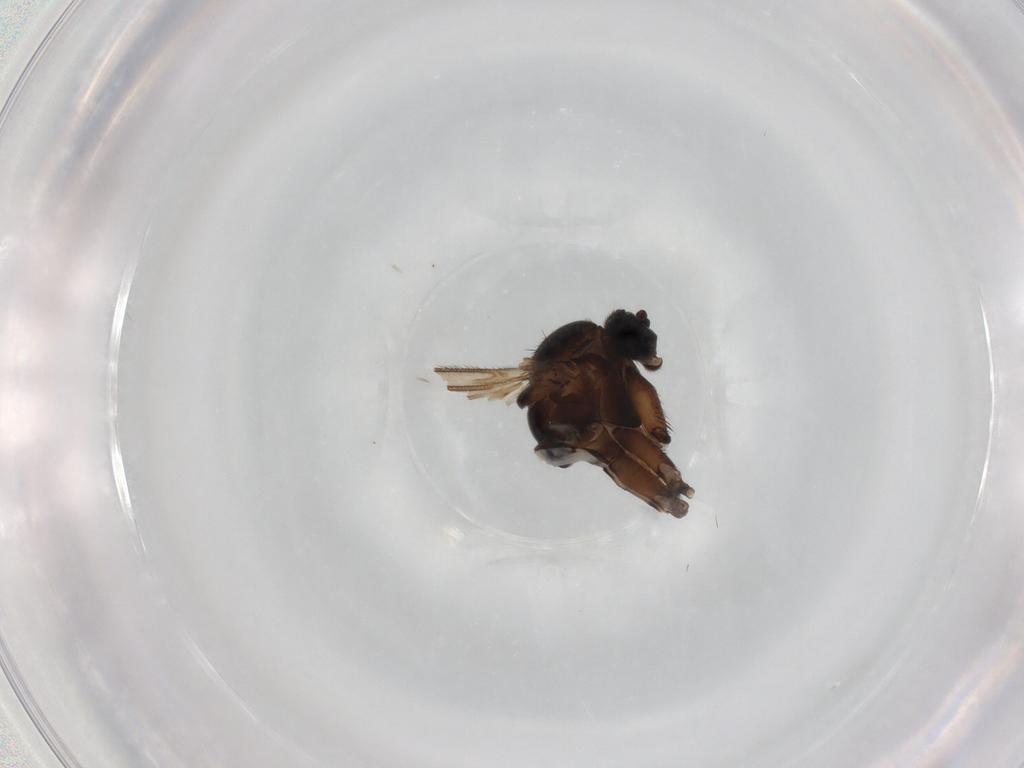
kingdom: Animalia
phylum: Arthropoda
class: Insecta
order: Diptera
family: Sciaridae
